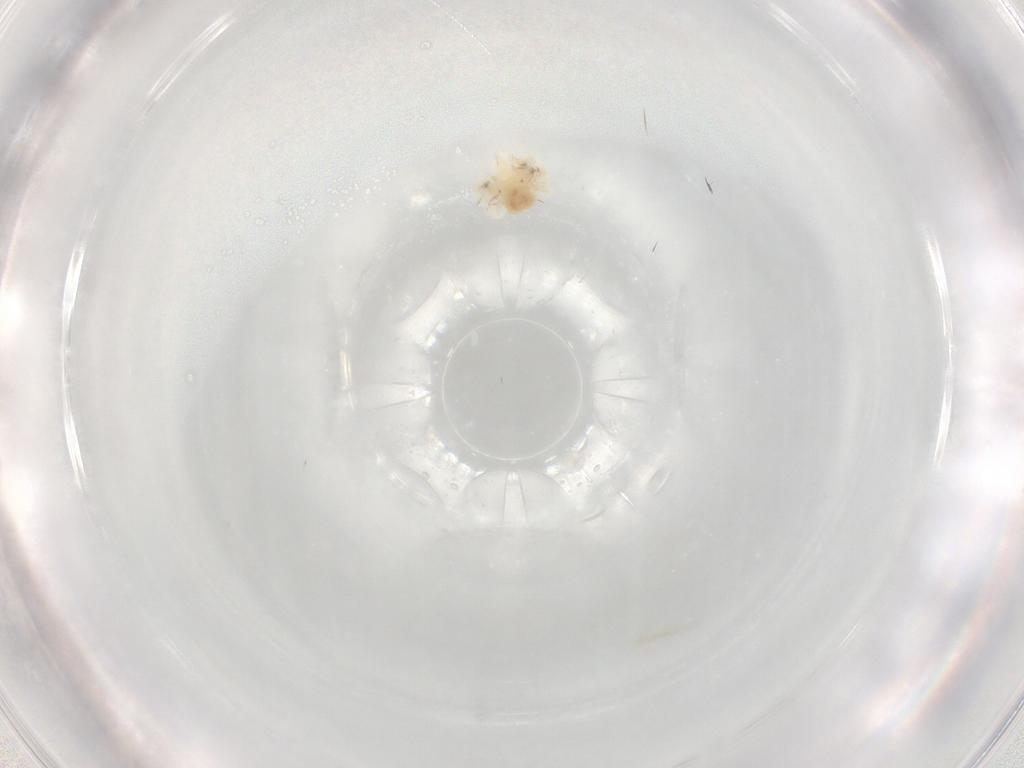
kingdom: Animalia
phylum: Arthropoda
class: Arachnida
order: Trombidiformes
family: Anystidae
